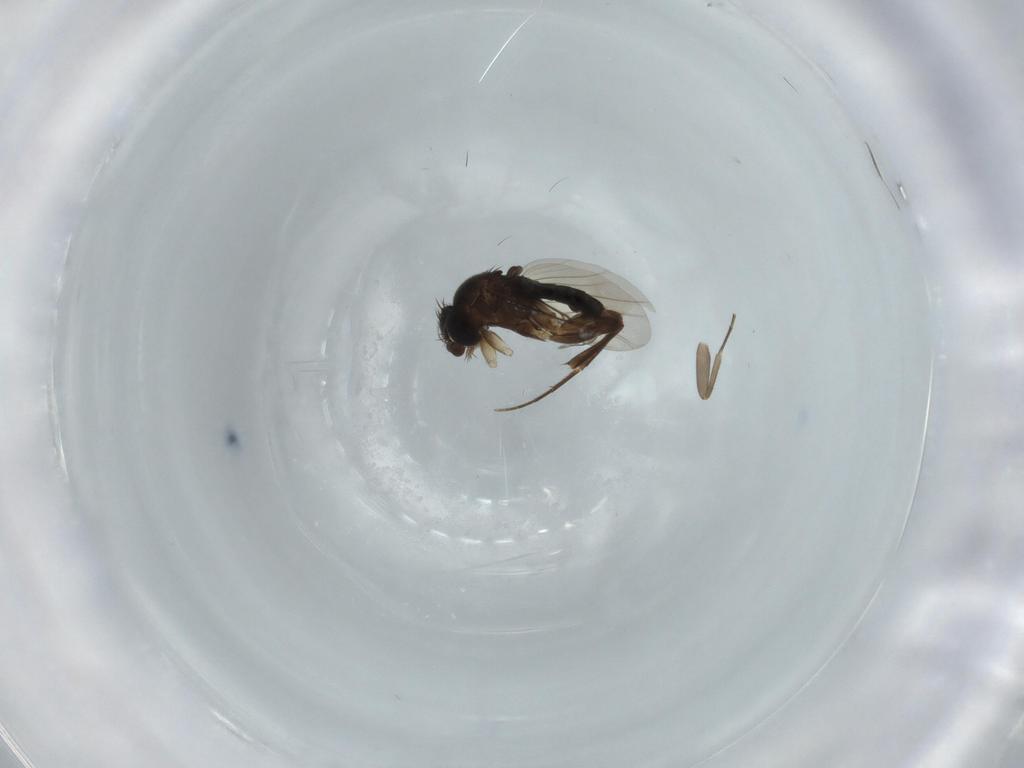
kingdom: Animalia
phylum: Arthropoda
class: Insecta
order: Diptera
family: Phoridae
